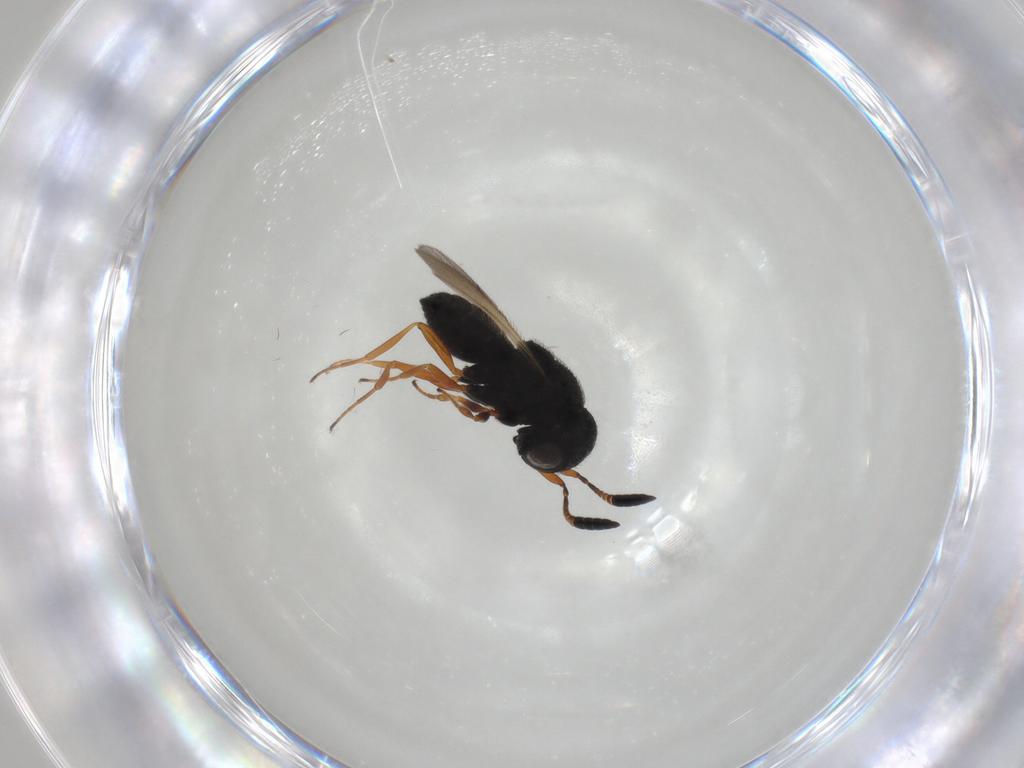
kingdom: Animalia
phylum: Arthropoda
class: Insecta
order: Hymenoptera
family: Scelionidae
